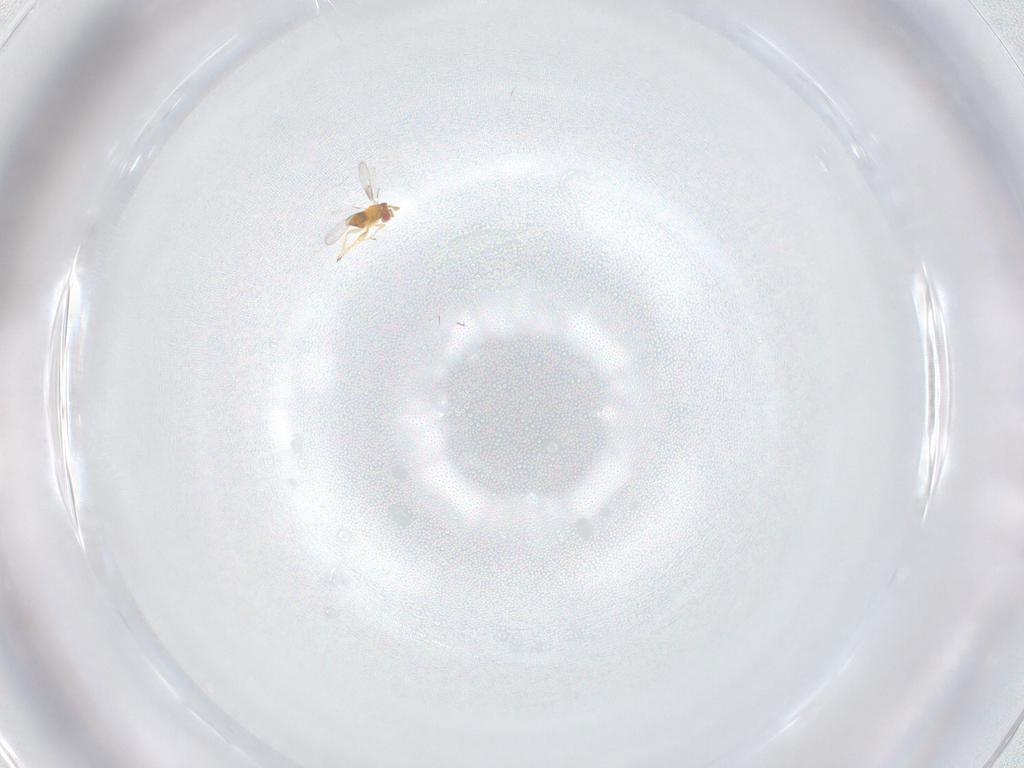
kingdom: Animalia
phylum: Arthropoda
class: Insecta
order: Hymenoptera
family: Trichogrammatidae
